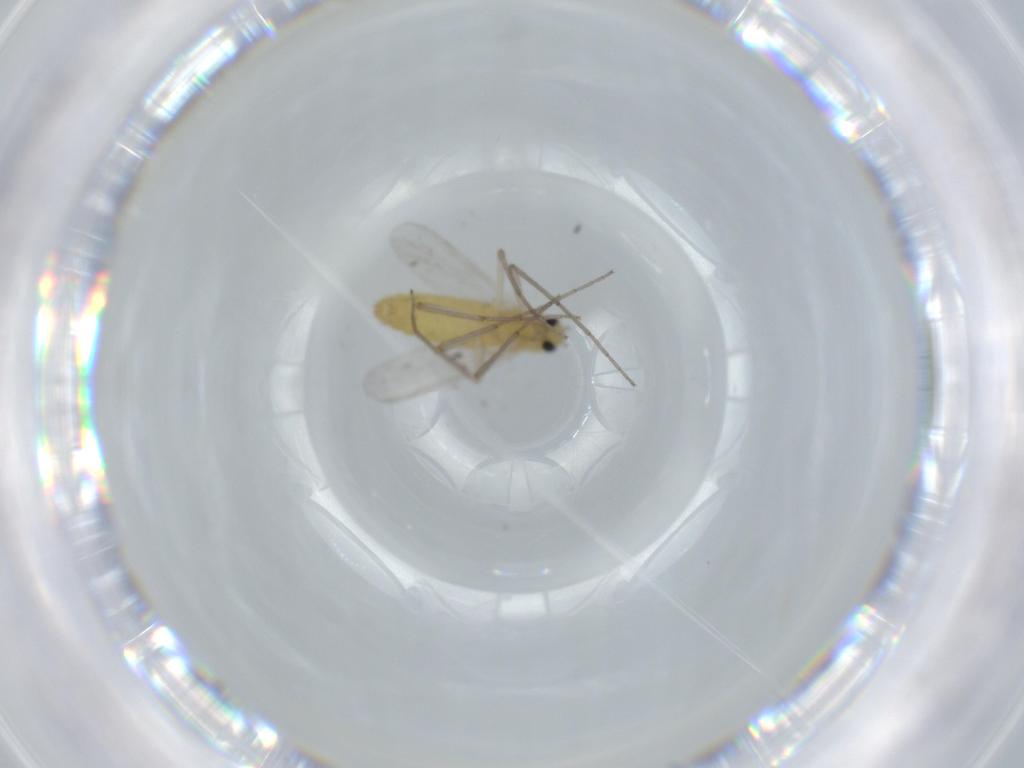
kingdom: Animalia
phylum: Arthropoda
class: Insecta
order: Diptera
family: Chironomidae
